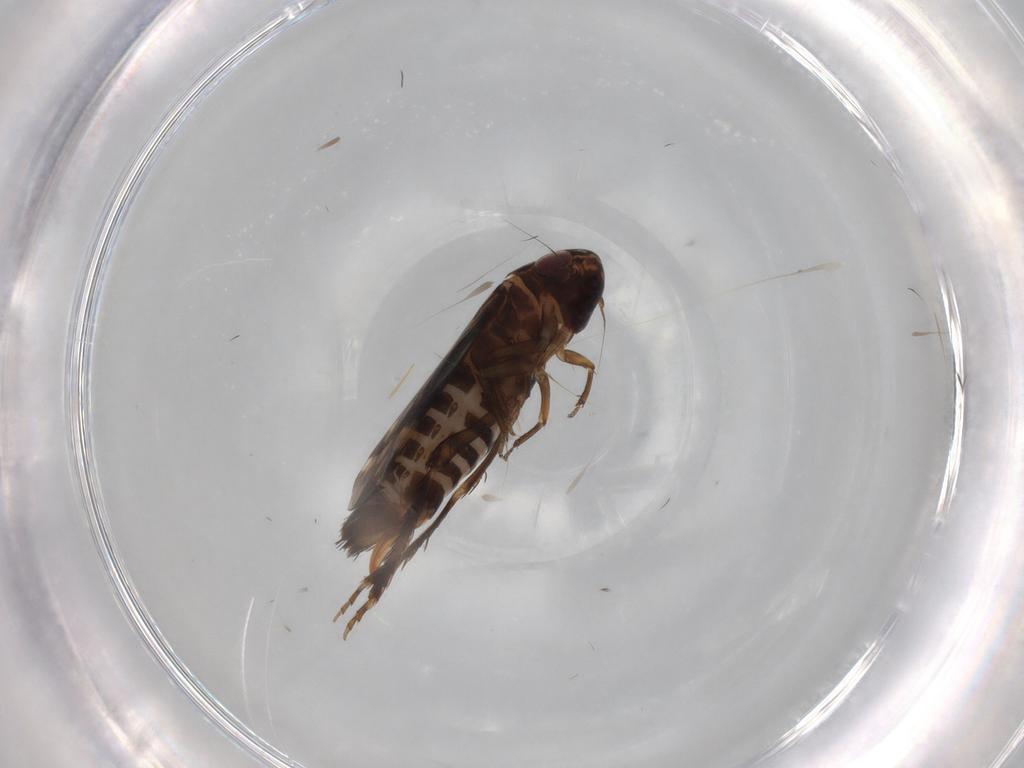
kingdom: Animalia
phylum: Arthropoda
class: Insecta
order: Hemiptera
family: Cicadellidae
